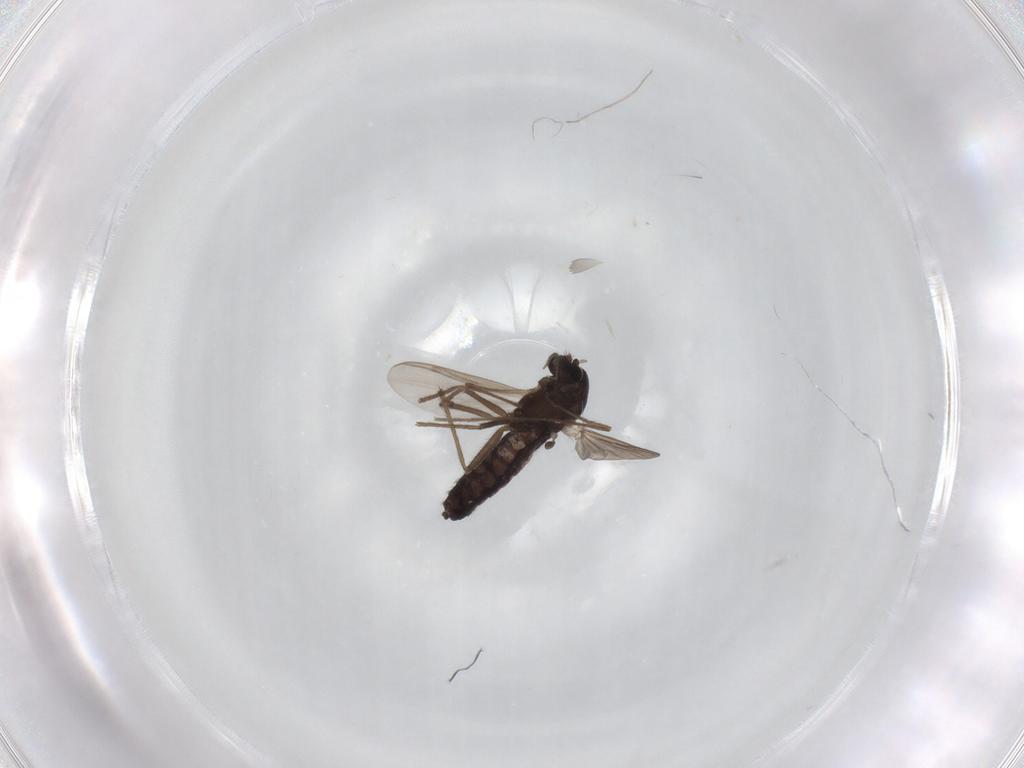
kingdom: Animalia
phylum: Arthropoda
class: Insecta
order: Diptera
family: Chironomidae
